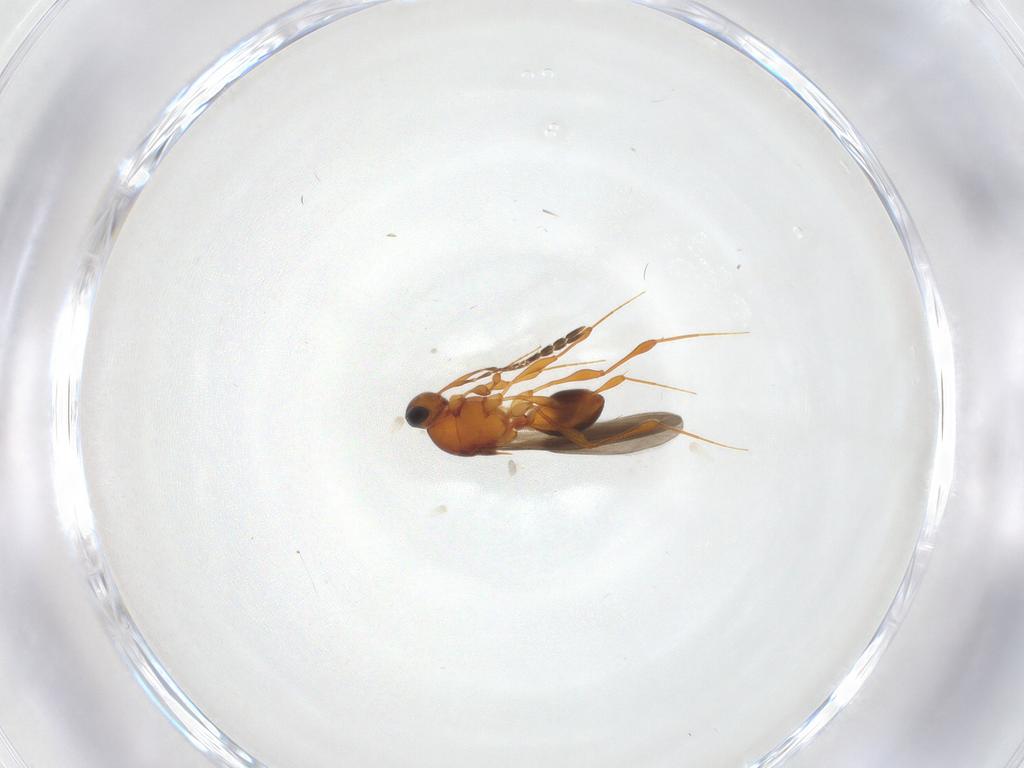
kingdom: Animalia
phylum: Arthropoda
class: Insecta
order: Hymenoptera
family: Platygastridae
